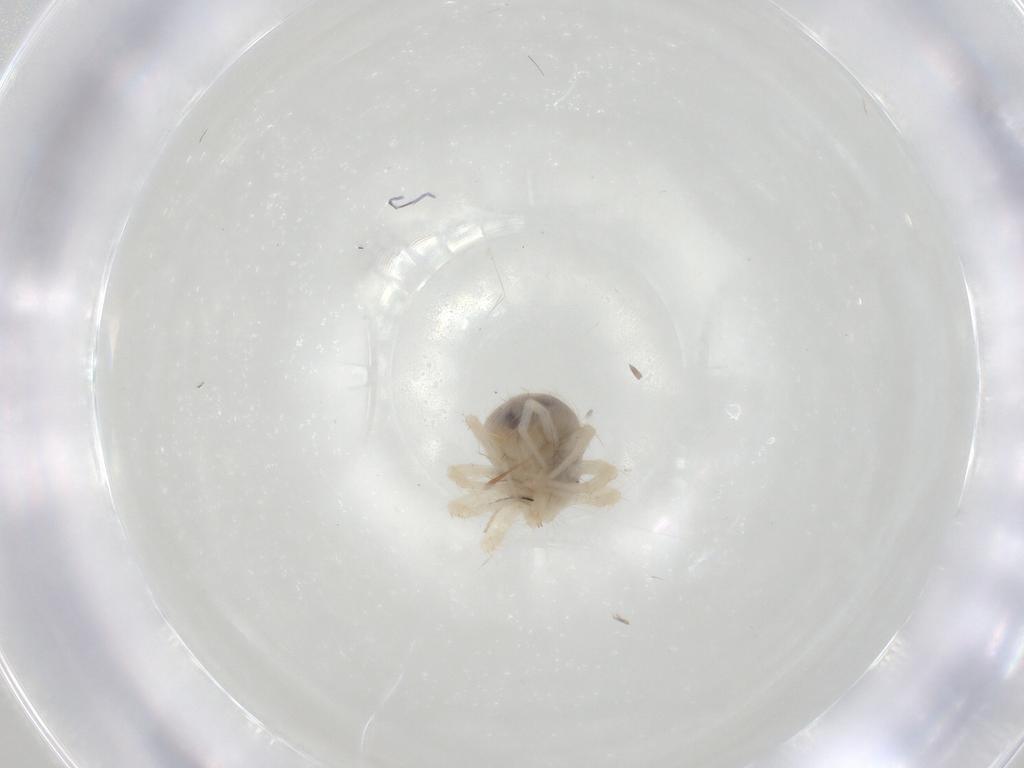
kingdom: Animalia
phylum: Arthropoda
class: Arachnida
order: Trombidiformes
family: Anystidae
